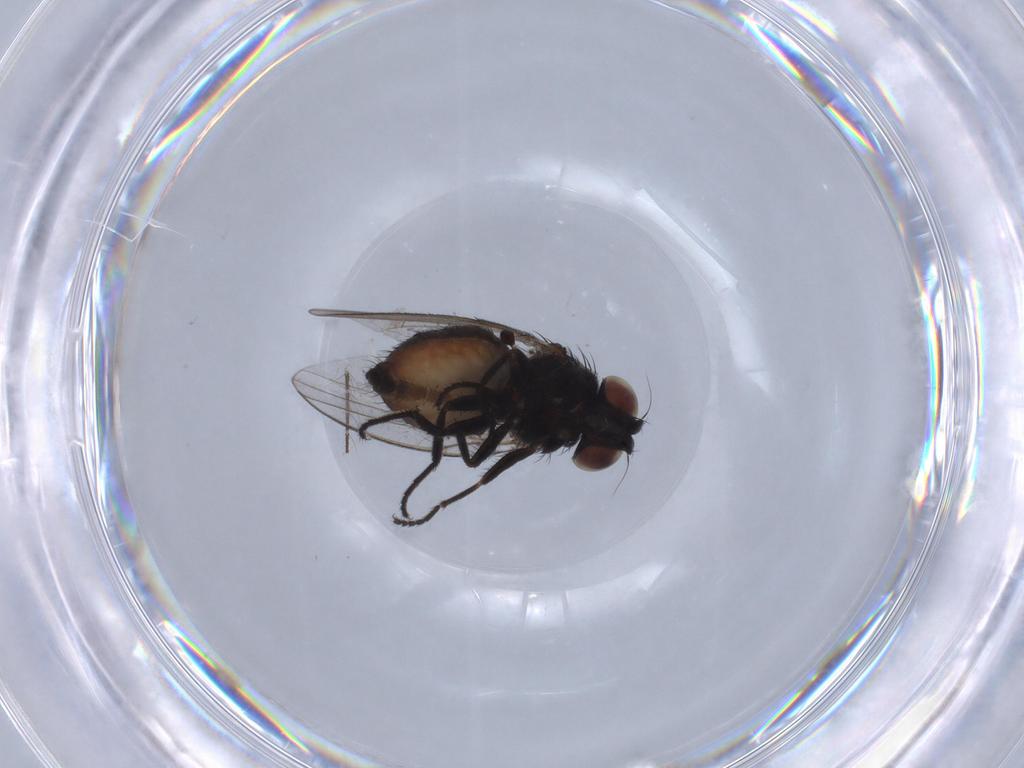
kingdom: Animalia
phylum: Arthropoda
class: Insecta
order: Diptera
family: Milichiidae
